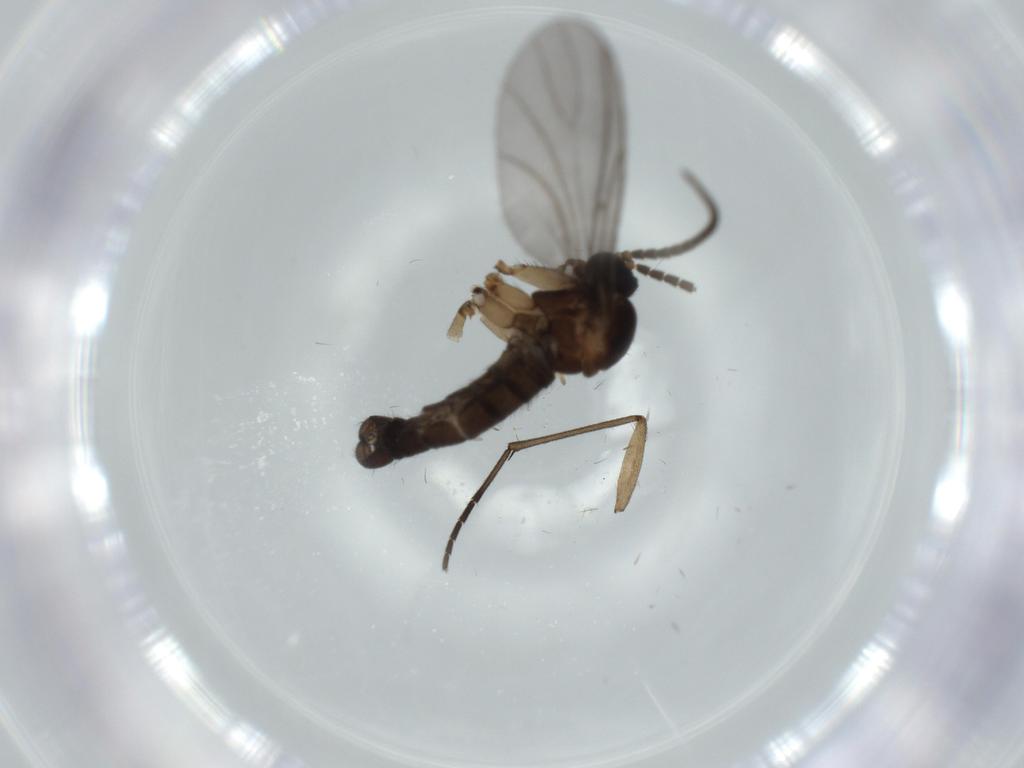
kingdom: Animalia
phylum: Arthropoda
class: Insecta
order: Diptera
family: Sciaridae
